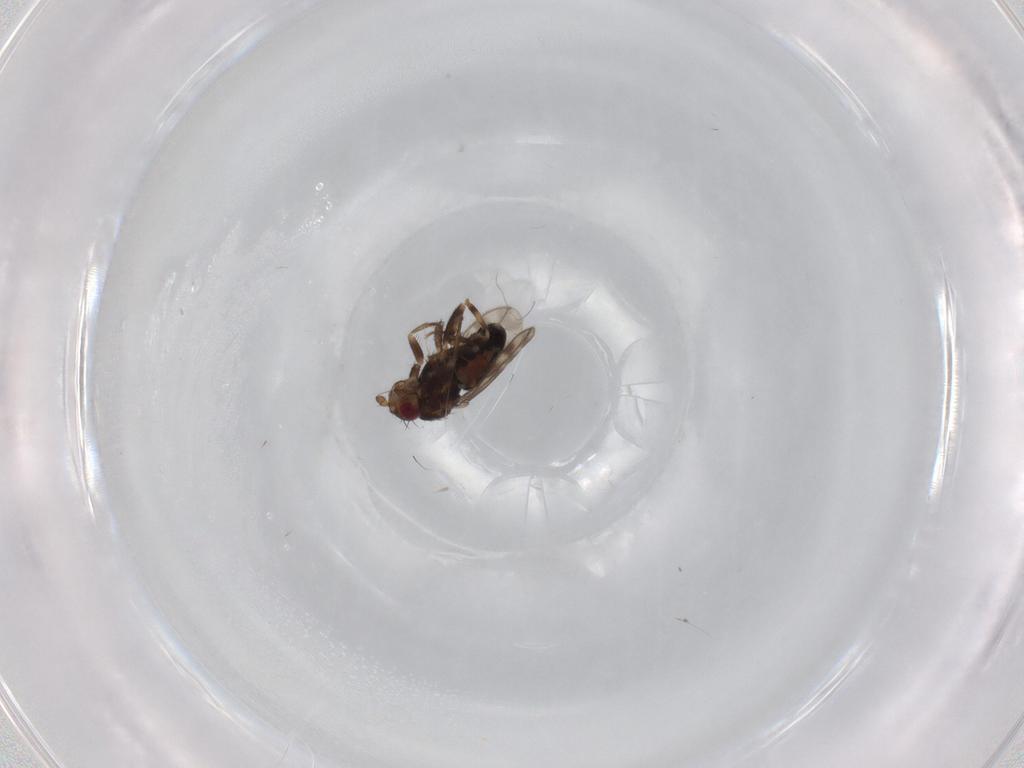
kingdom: Animalia
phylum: Arthropoda
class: Insecta
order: Diptera
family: Sphaeroceridae
